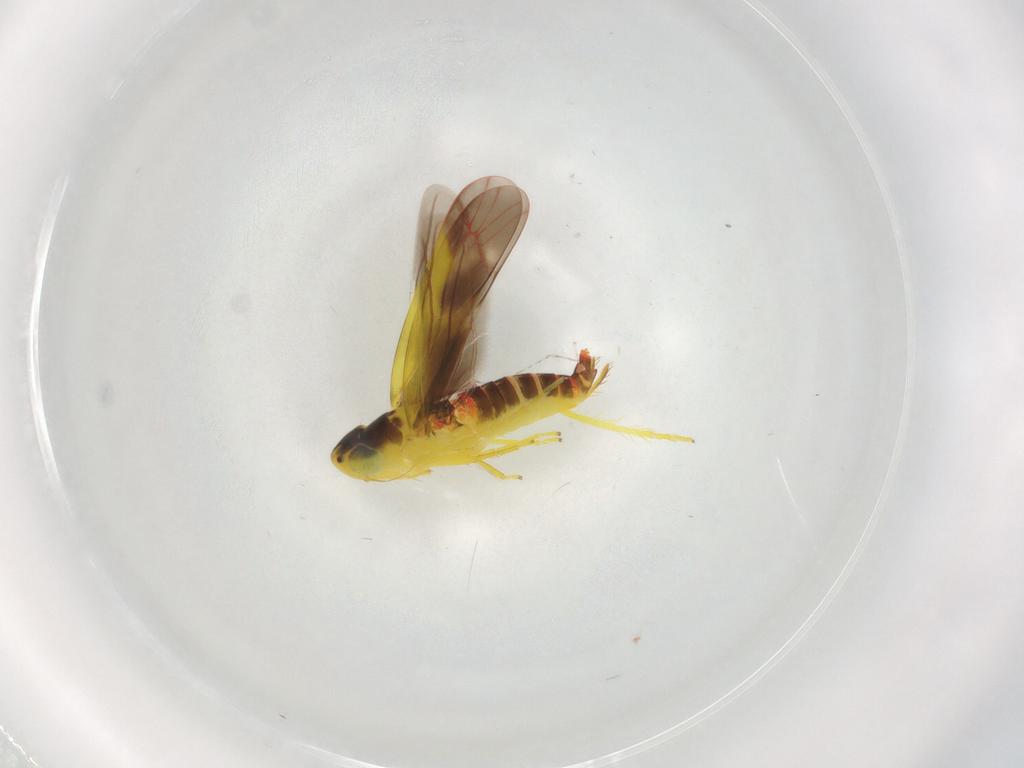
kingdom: Animalia
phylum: Arthropoda
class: Insecta
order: Hemiptera
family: Cicadellidae
